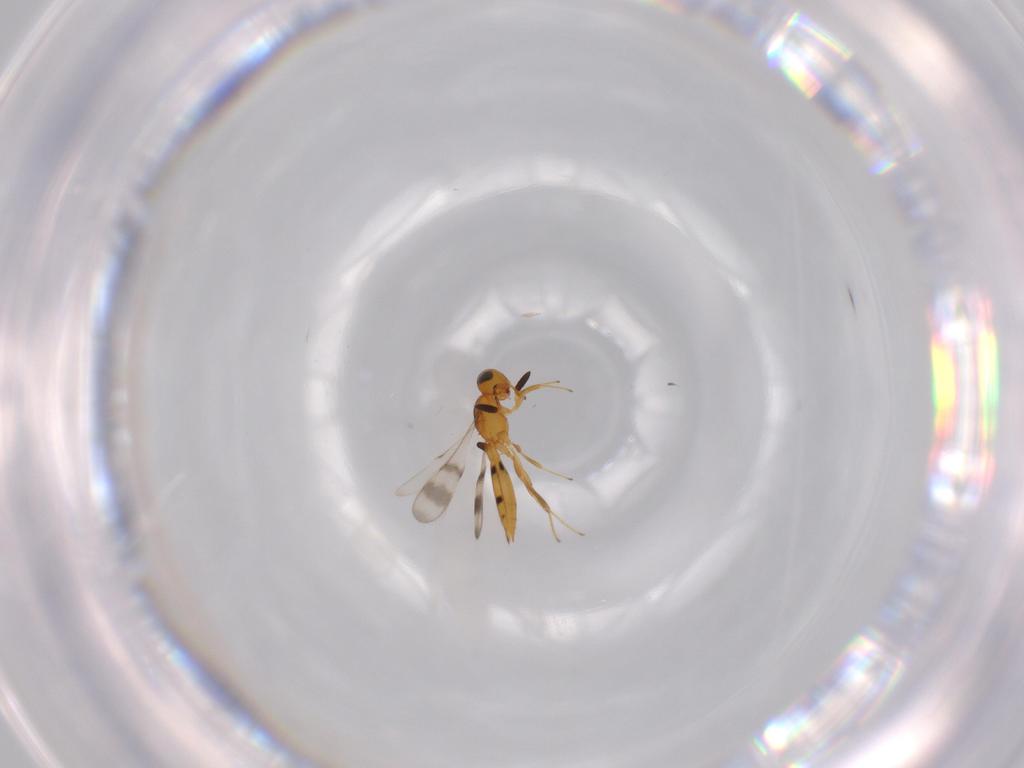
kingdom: Animalia
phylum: Arthropoda
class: Insecta
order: Hymenoptera
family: Scelionidae
